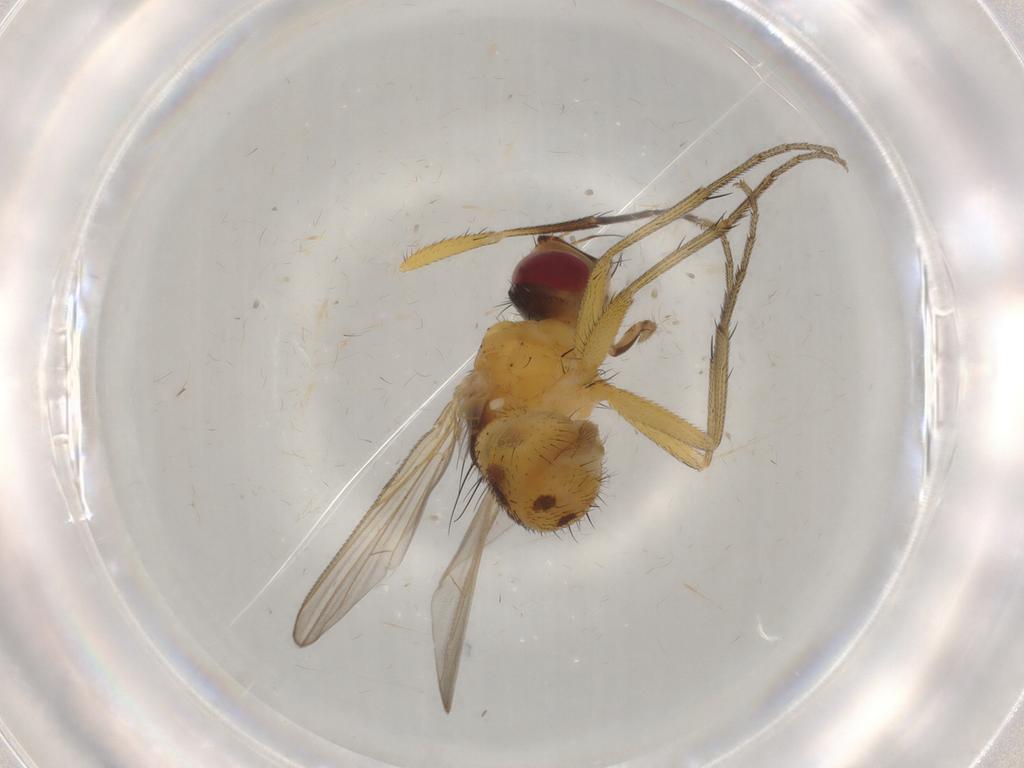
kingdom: Animalia
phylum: Arthropoda
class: Insecta
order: Diptera
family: Muscidae
